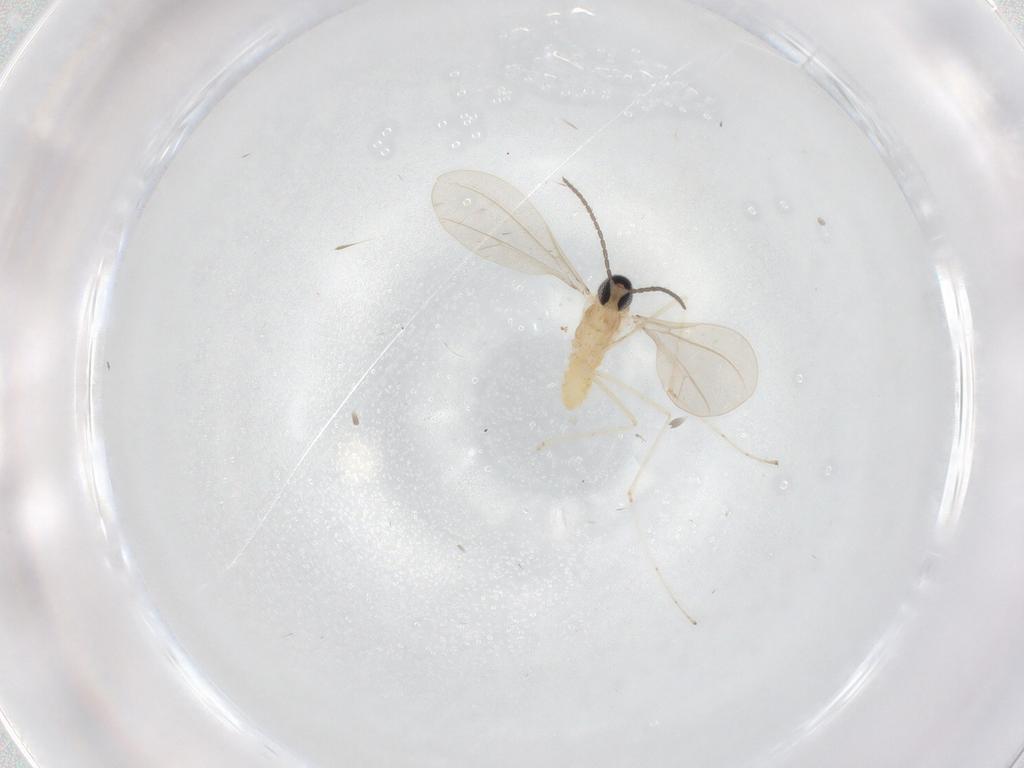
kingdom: Animalia
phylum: Arthropoda
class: Insecta
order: Diptera
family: Cecidomyiidae
